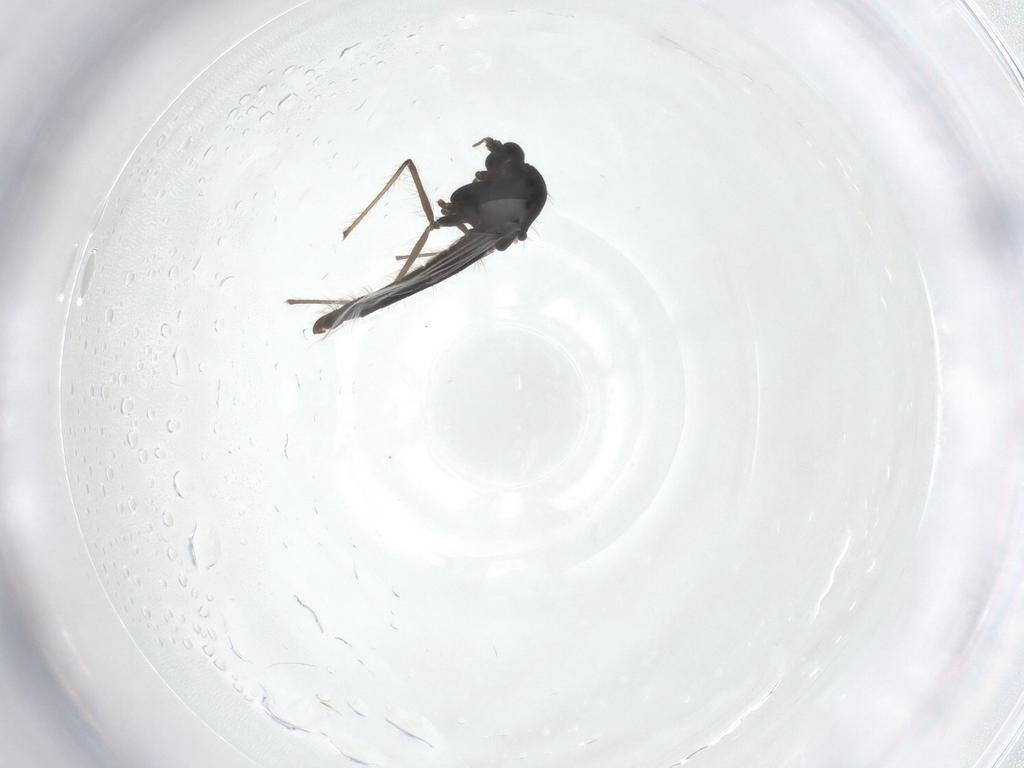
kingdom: Animalia
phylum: Arthropoda
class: Insecta
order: Diptera
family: Chironomidae
